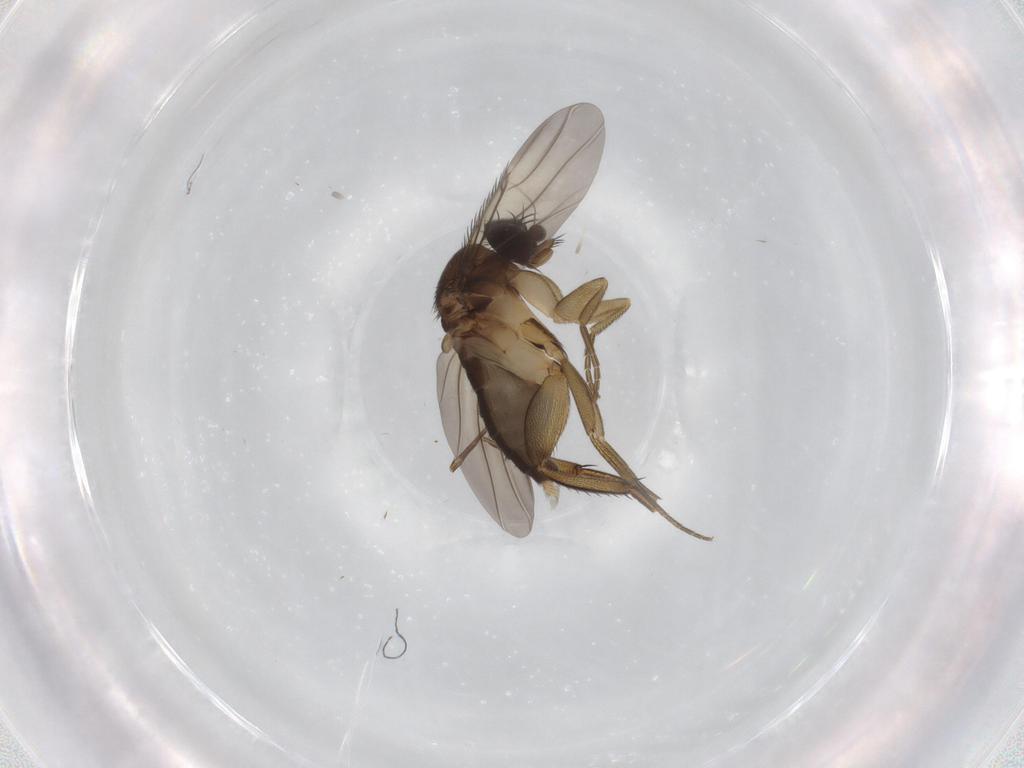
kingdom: Animalia
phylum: Arthropoda
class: Insecta
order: Diptera
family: Phoridae
